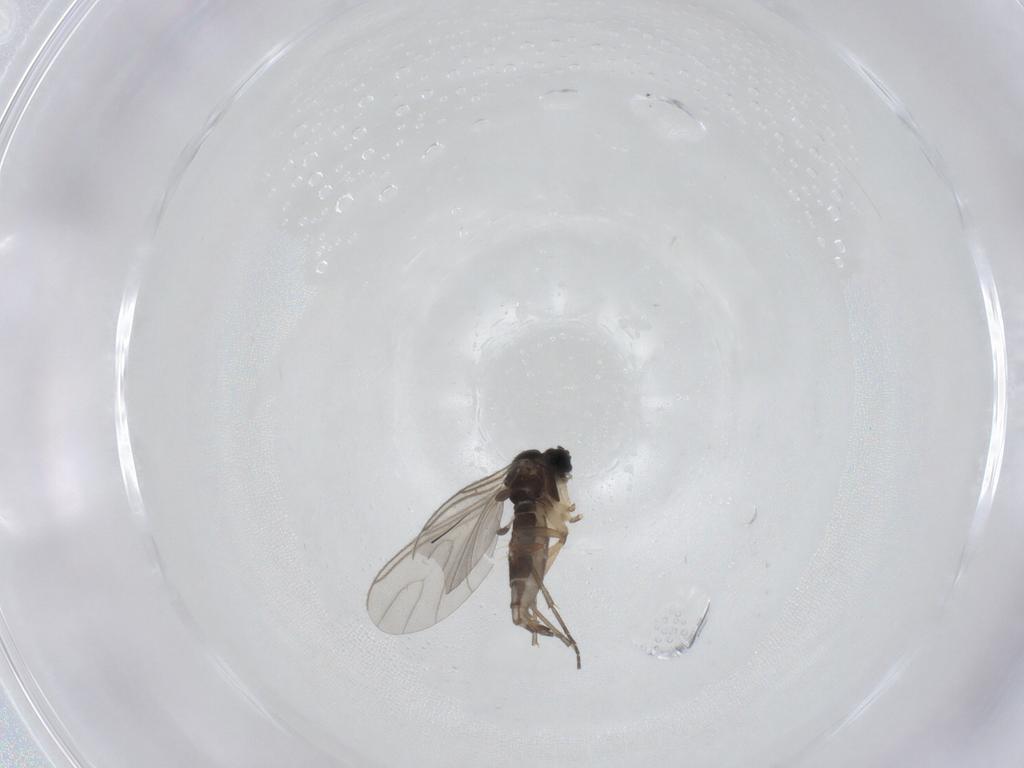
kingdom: Animalia
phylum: Arthropoda
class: Insecta
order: Diptera
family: Sciaridae
